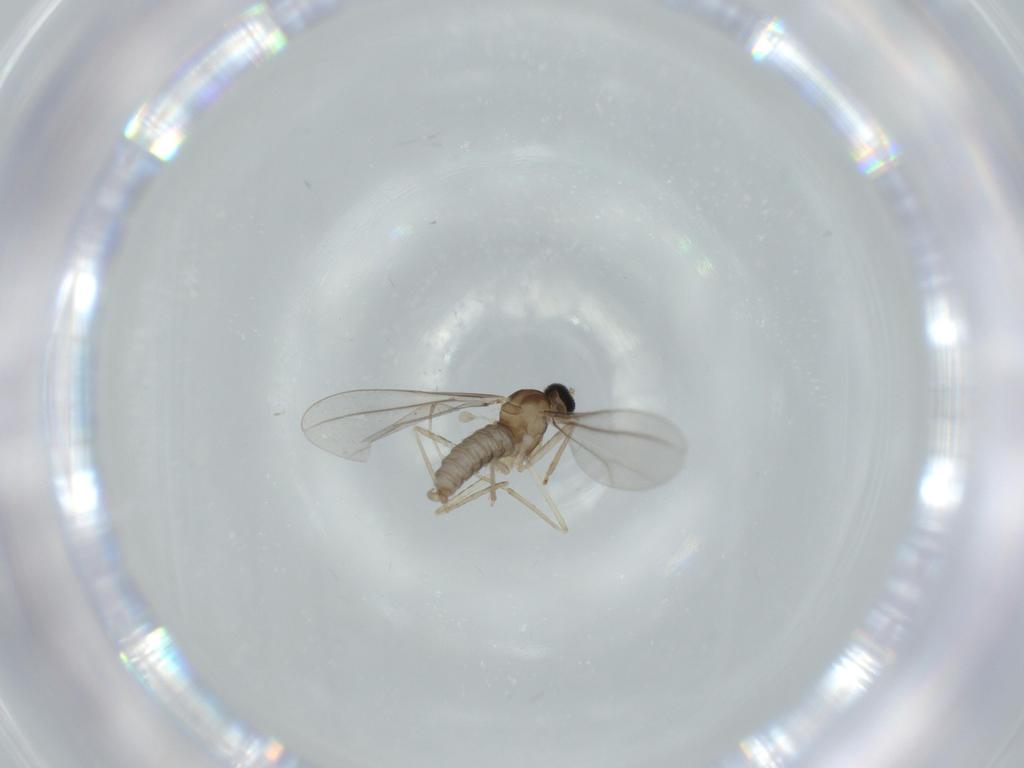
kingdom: Animalia
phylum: Arthropoda
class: Insecta
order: Diptera
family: Cecidomyiidae
